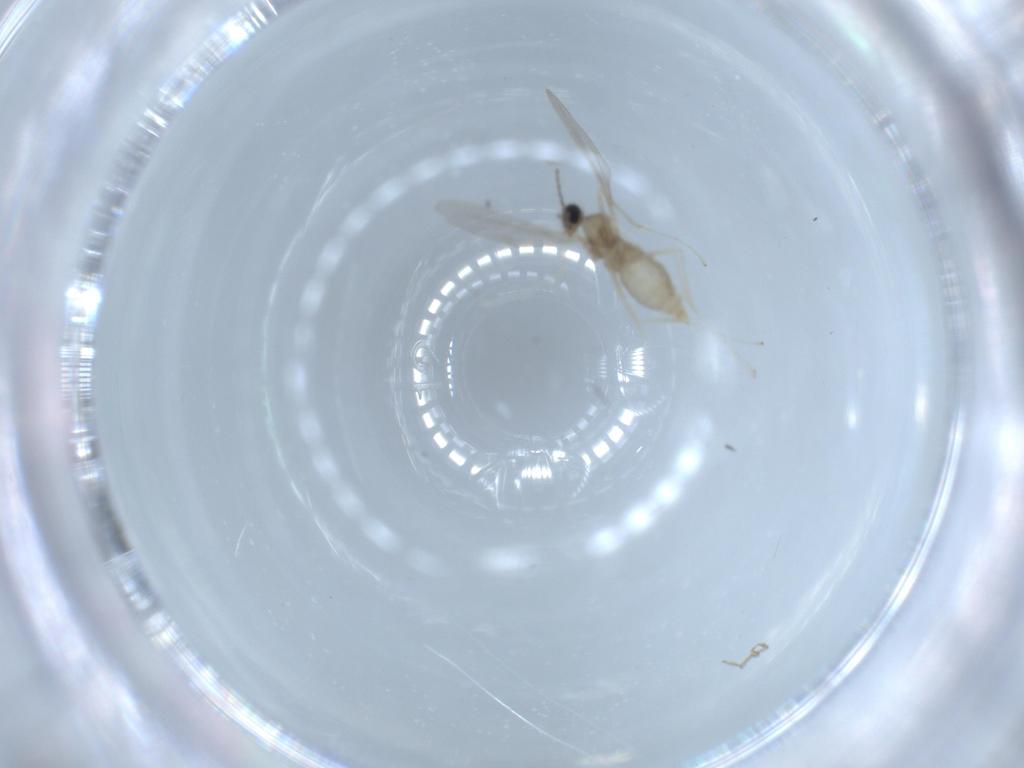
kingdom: Animalia
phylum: Arthropoda
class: Insecta
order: Diptera
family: Cecidomyiidae
